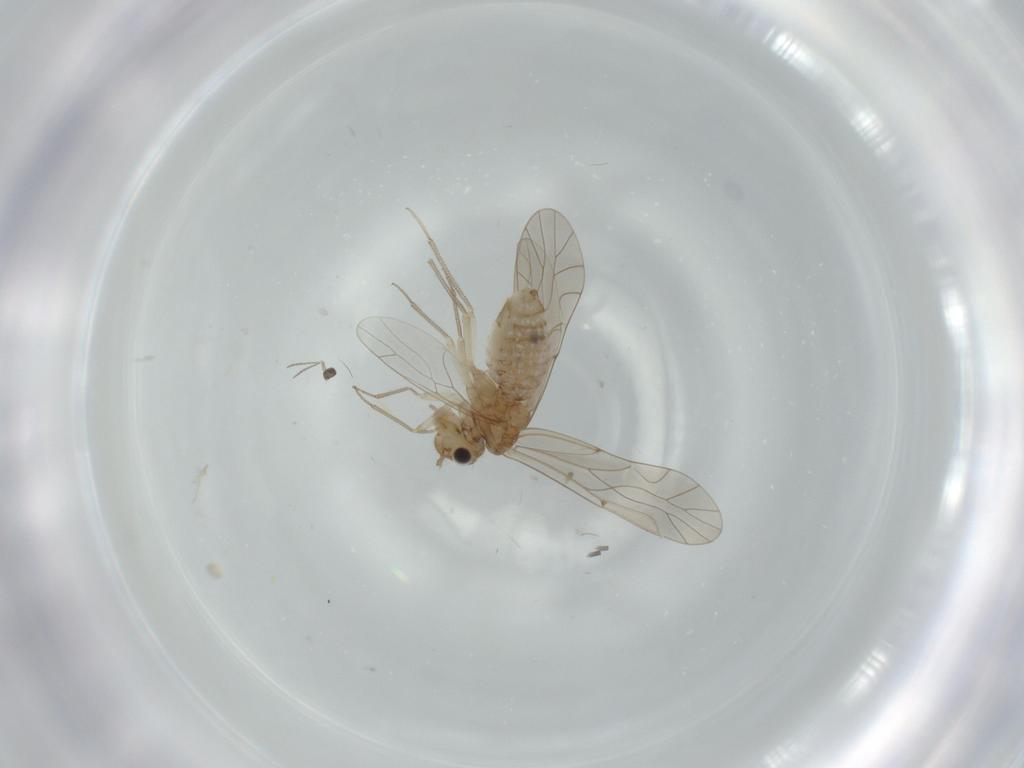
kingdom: Animalia
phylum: Arthropoda
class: Insecta
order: Psocodea
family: Lachesillidae
